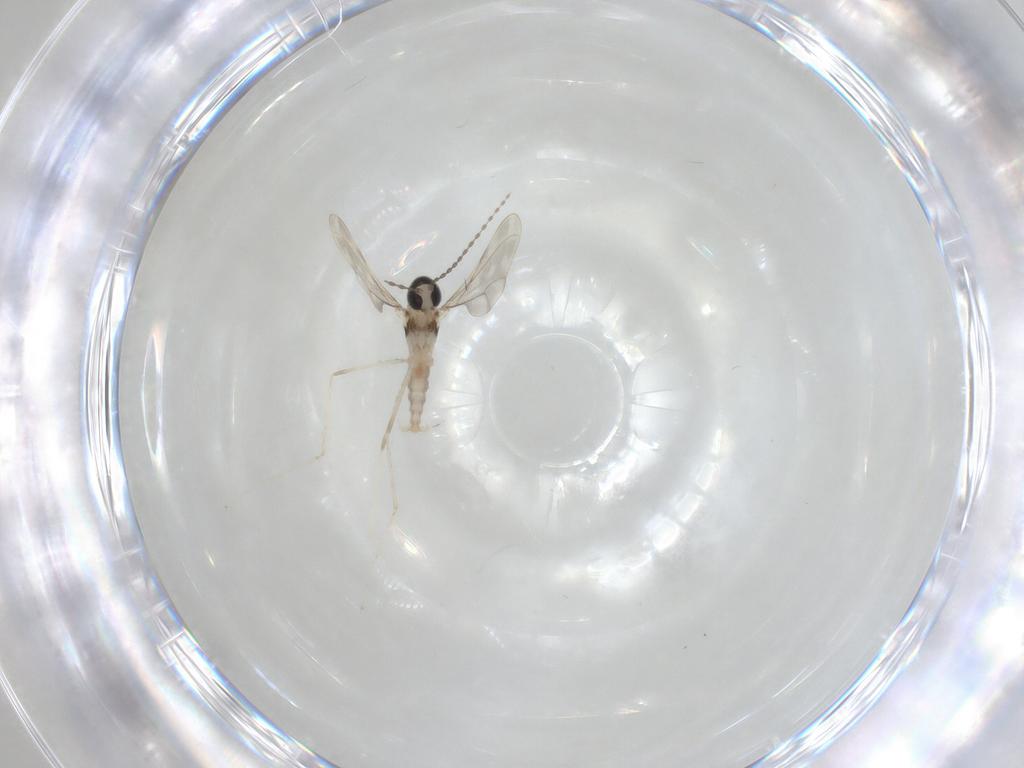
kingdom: Animalia
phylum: Arthropoda
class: Insecta
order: Diptera
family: Cecidomyiidae
